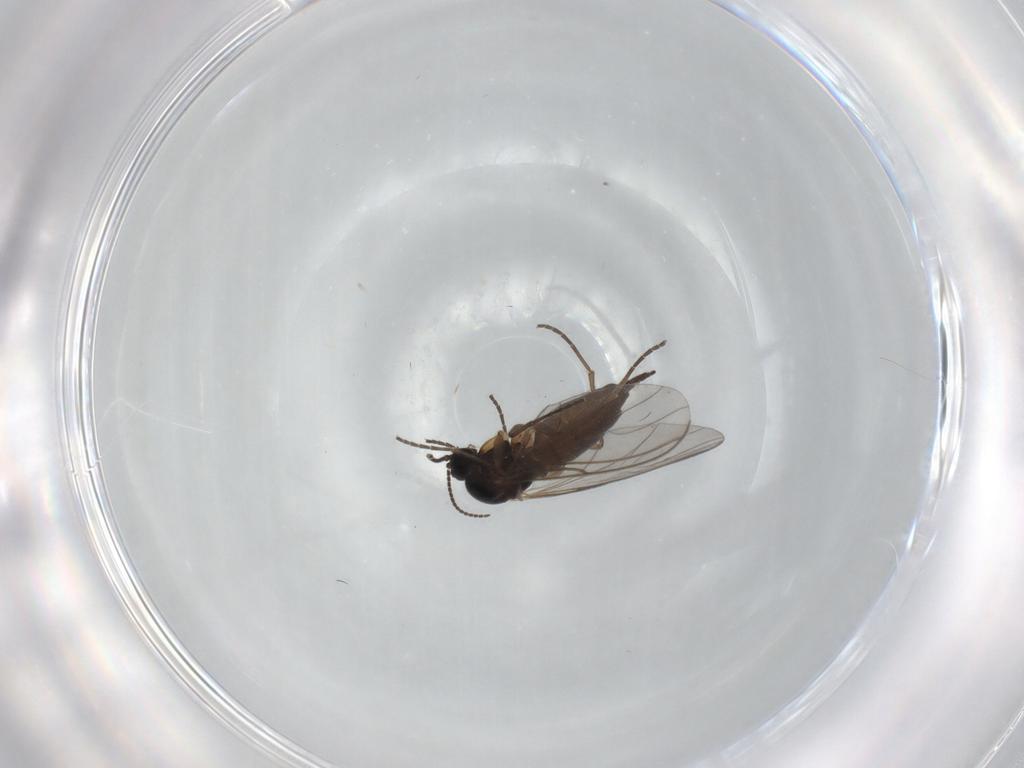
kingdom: Animalia
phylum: Arthropoda
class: Insecta
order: Diptera
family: Sciaridae
